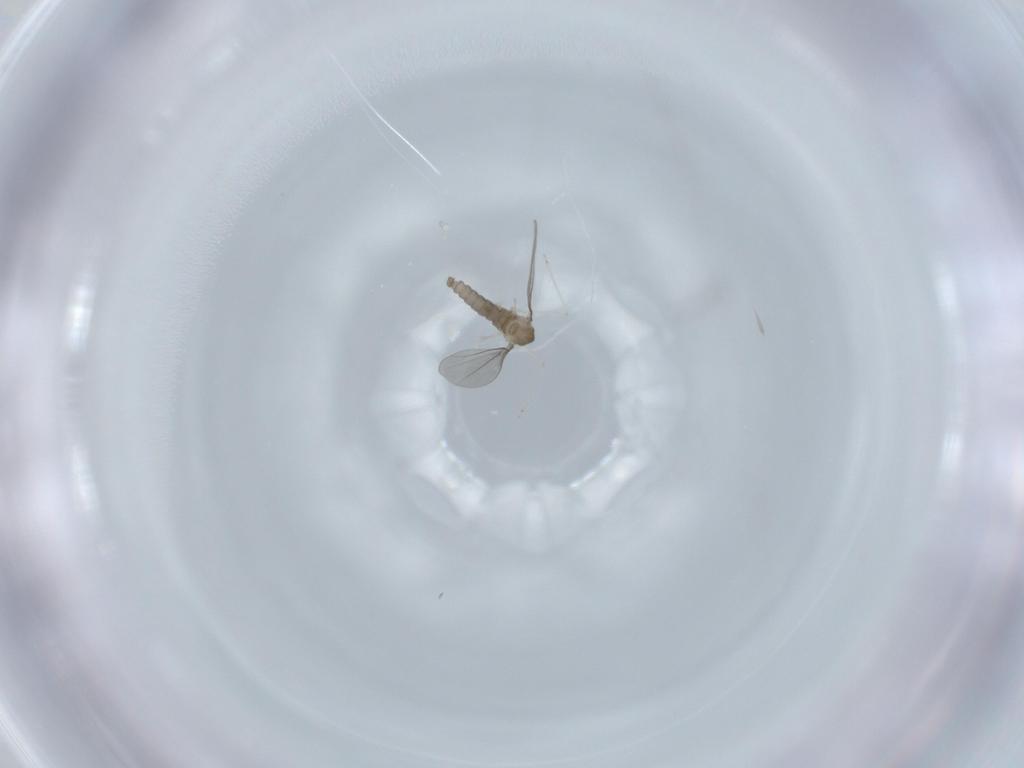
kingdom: Animalia
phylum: Arthropoda
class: Insecta
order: Diptera
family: Cecidomyiidae
